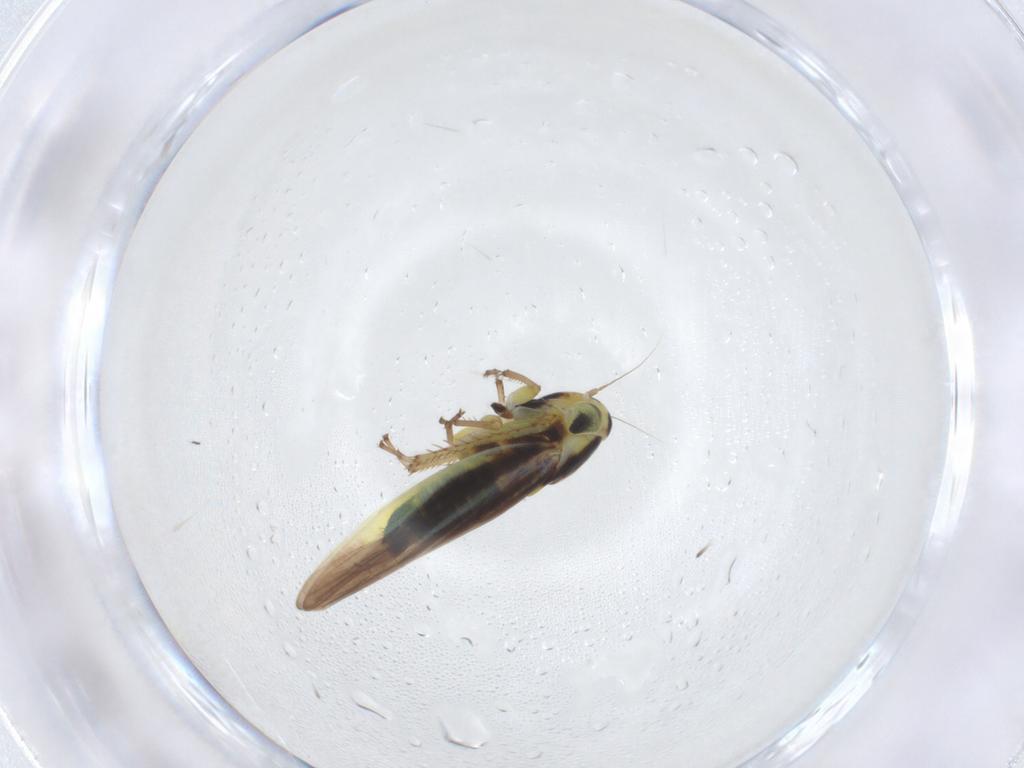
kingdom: Animalia
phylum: Arthropoda
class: Insecta
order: Hemiptera
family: Cicadellidae
